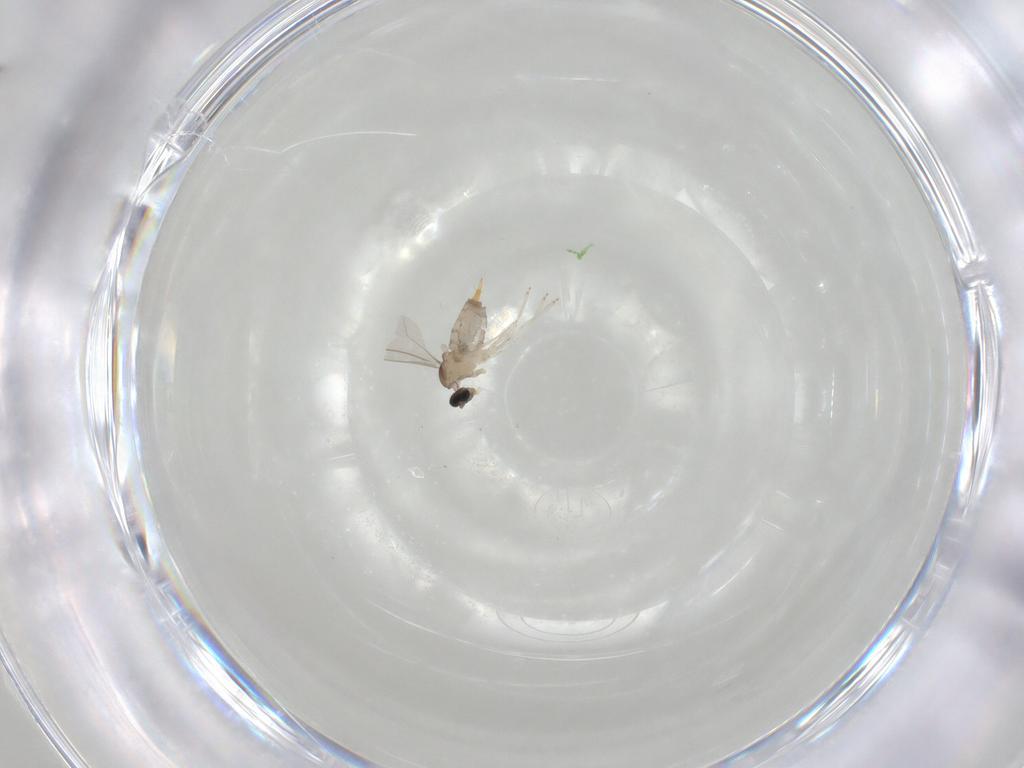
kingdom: Animalia
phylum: Arthropoda
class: Insecta
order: Diptera
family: Cecidomyiidae
